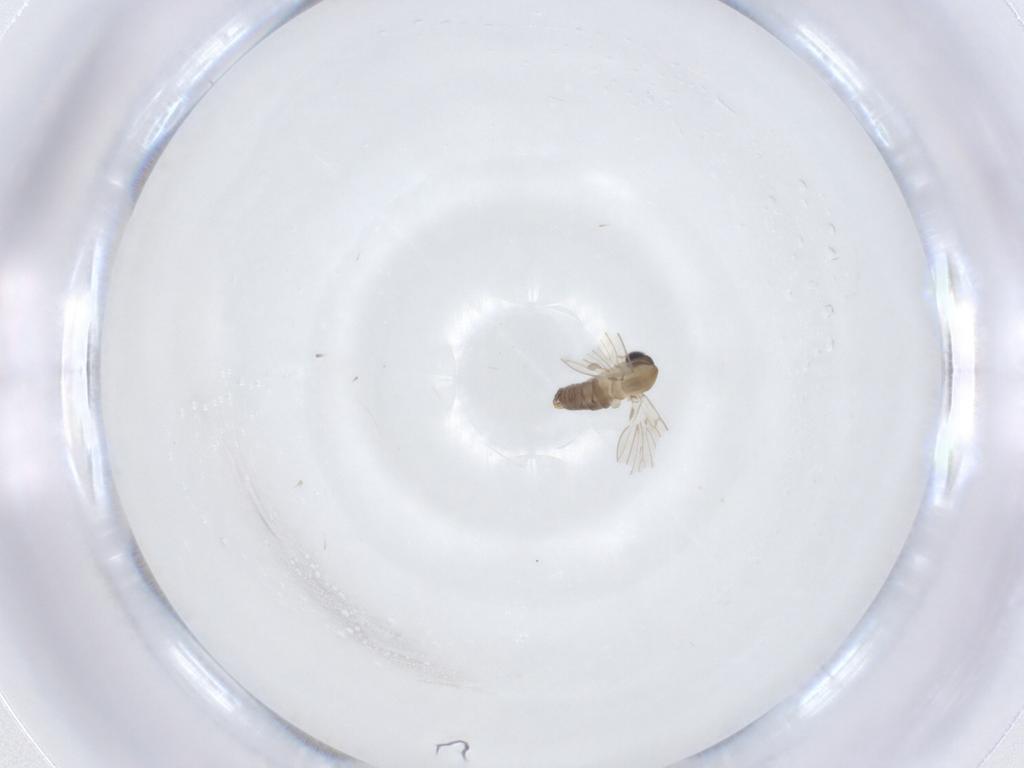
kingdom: Animalia
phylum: Arthropoda
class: Insecta
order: Diptera
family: Psychodidae
